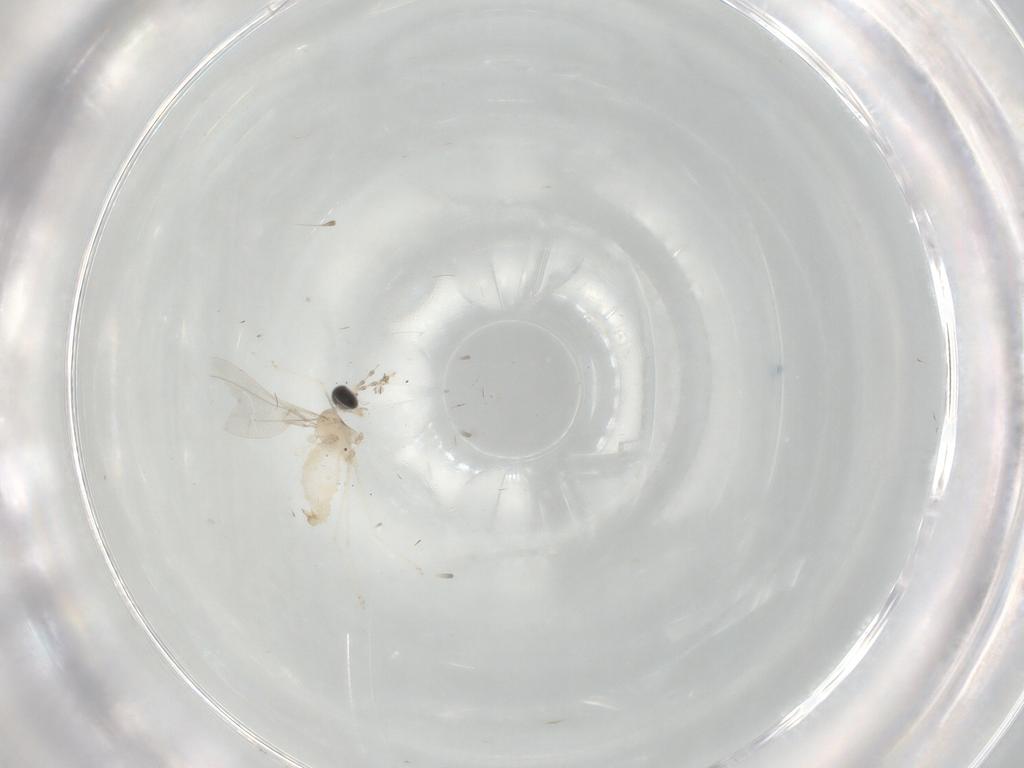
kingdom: Animalia
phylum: Arthropoda
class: Insecta
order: Diptera
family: Cecidomyiidae
